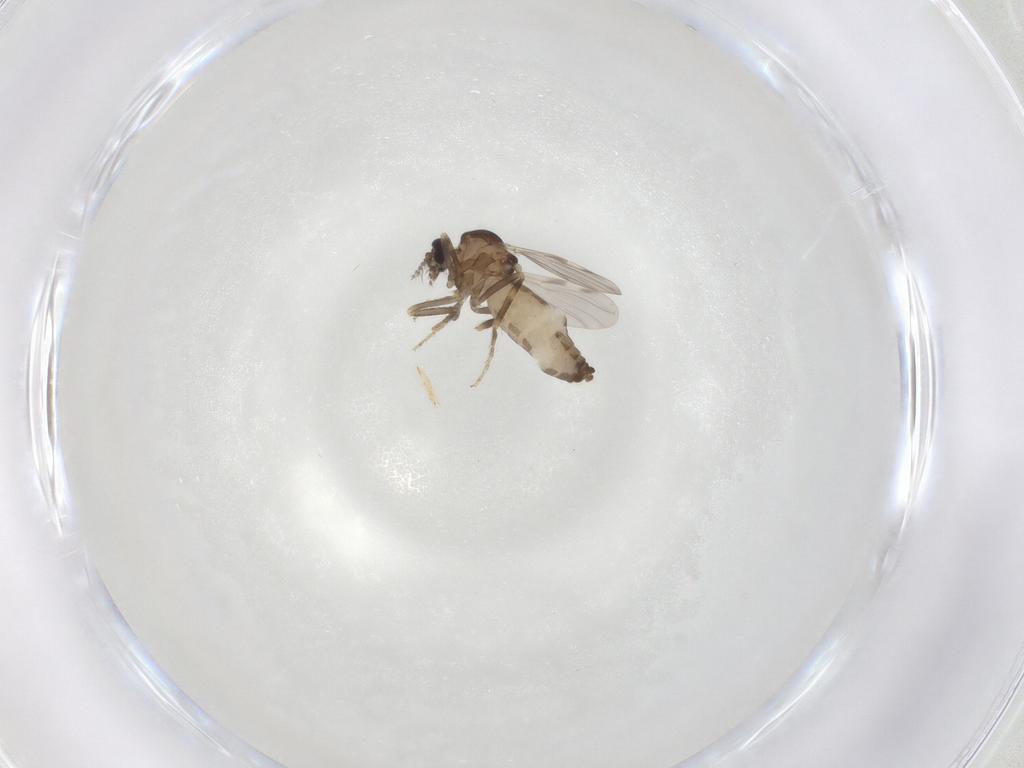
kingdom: Animalia
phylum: Arthropoda
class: Insecta
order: Diptera
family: Ceratopogonidae
